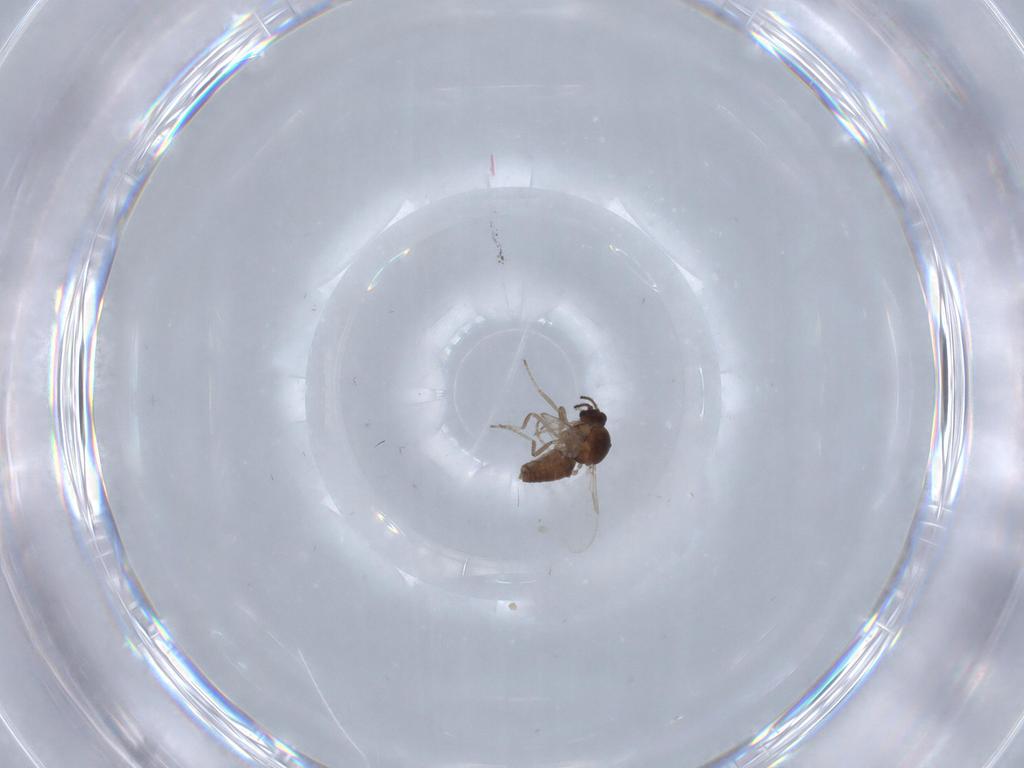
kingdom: Animalia
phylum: Arthropoda
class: Insecta
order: Diptera
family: Ceratopogonidae
